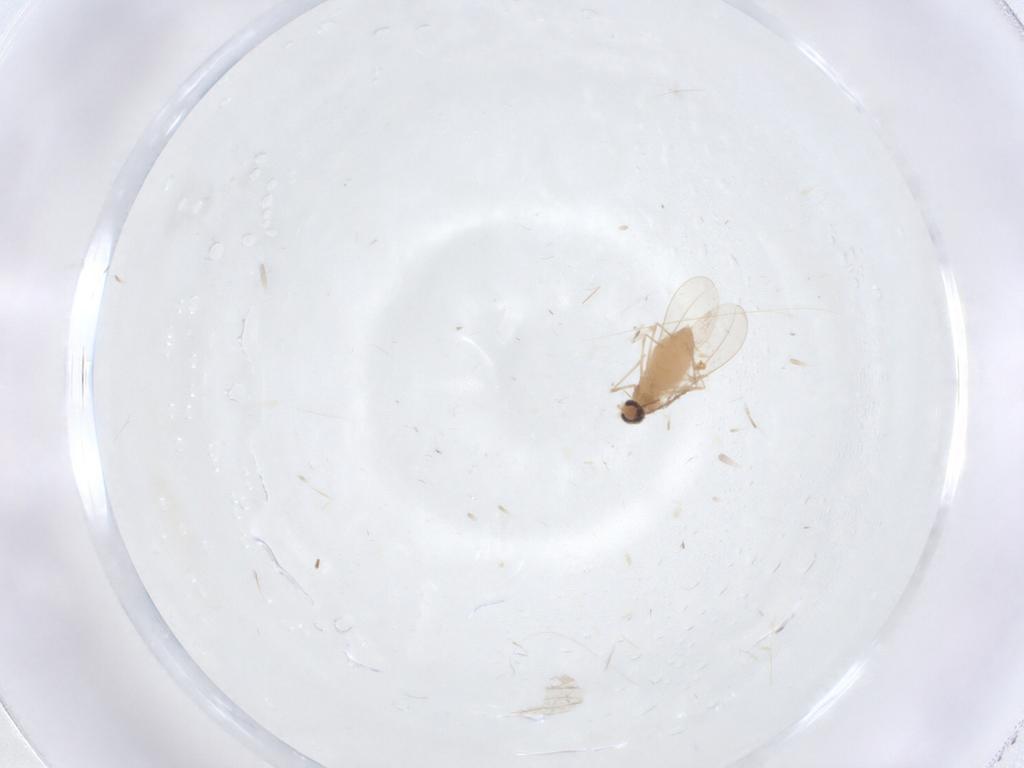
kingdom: Animalia
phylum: Arthropoda
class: Insecta
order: Diptera
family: Cecidomyiidae
